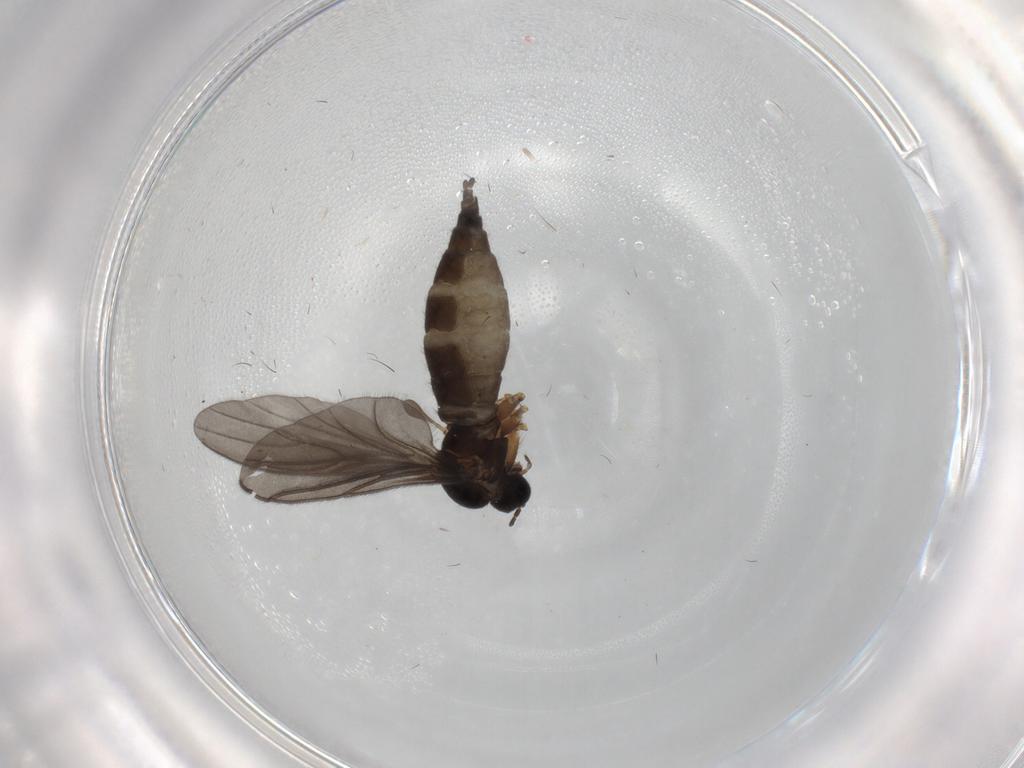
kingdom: Animalia
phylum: Arthropoda
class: Insecta
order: Diptera
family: Sciaridae
